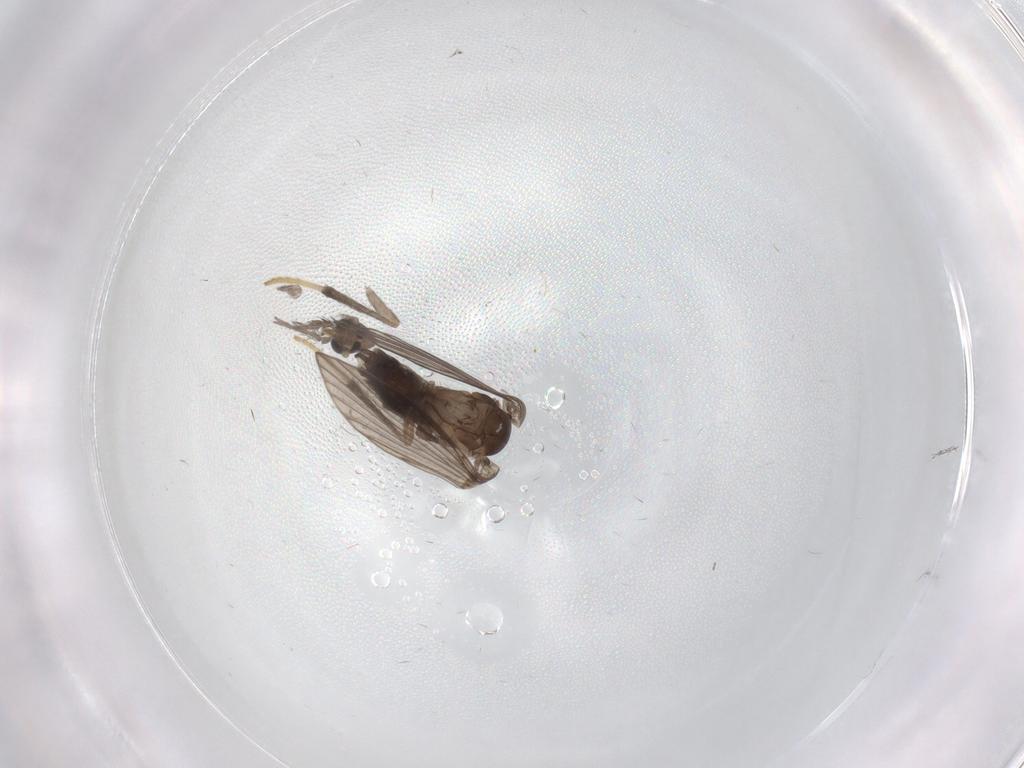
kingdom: Animalia
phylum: Arthropoda
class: Insecta
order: Diptera
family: Psychodidae
